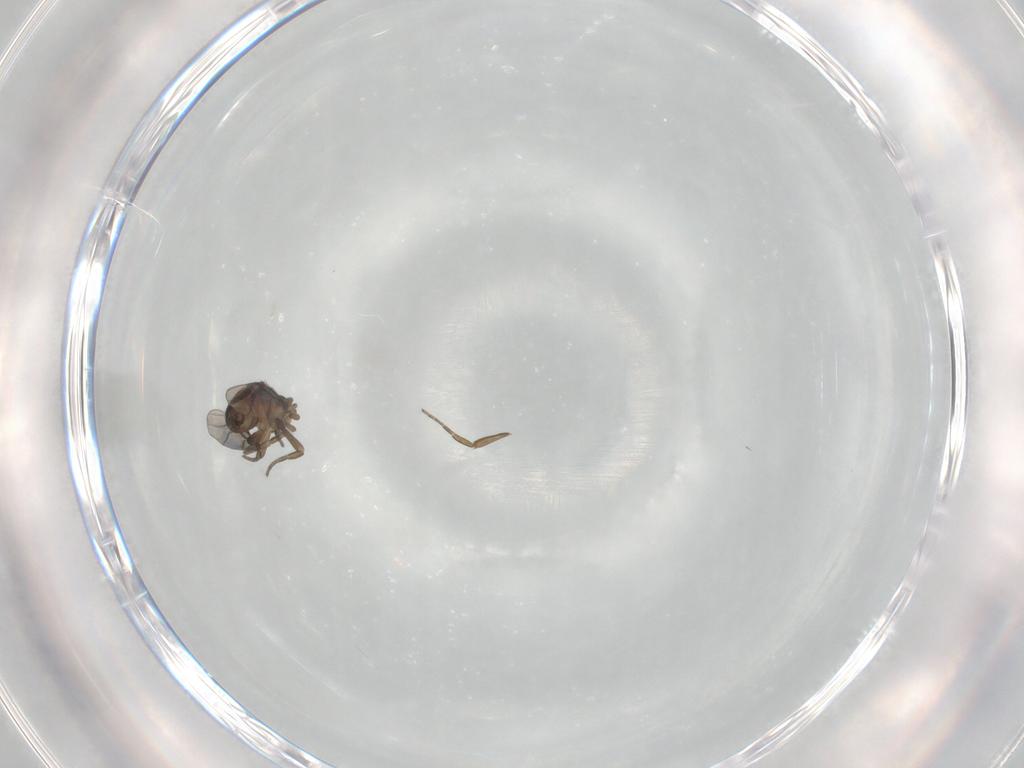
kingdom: Animalia
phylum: Arthropoda
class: Insecta
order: Diptera
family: Phoridae
